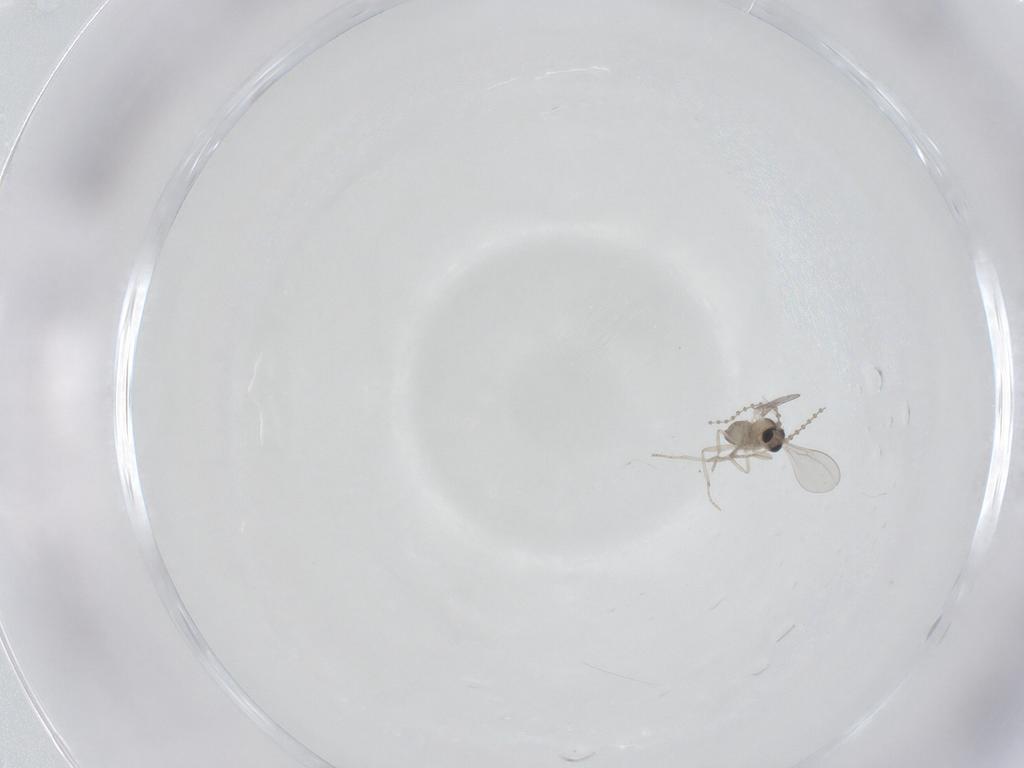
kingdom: Animalia
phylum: Arthropoda
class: Insecta
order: Diptera
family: Cecidomyiidae
